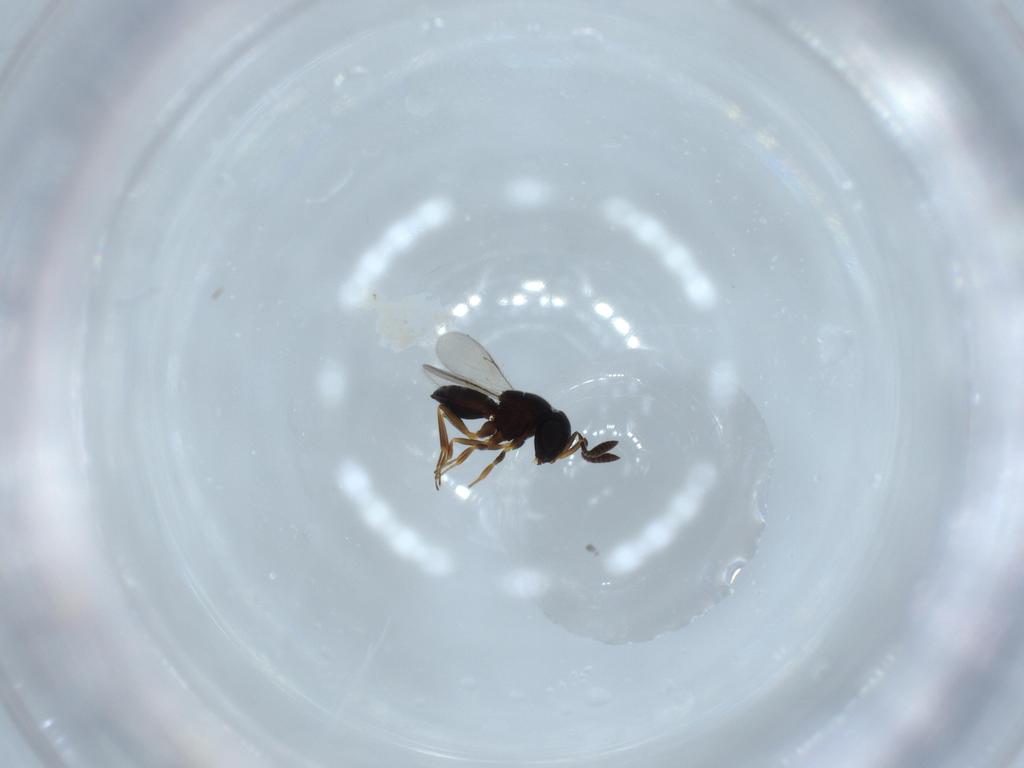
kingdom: Animalia
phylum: Arthropoda
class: Insecta
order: Coleoptera
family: Curculionidae
